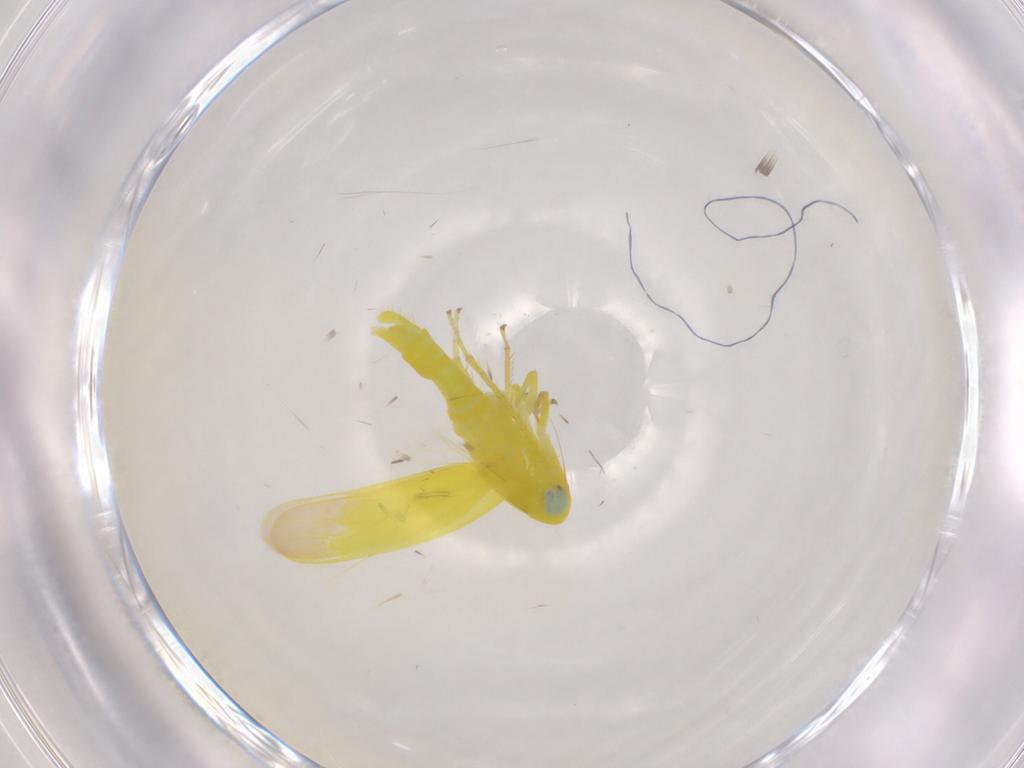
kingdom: Animalia
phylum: Arthropoda
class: Insecta
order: Hemiptera
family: Cicadellidae
